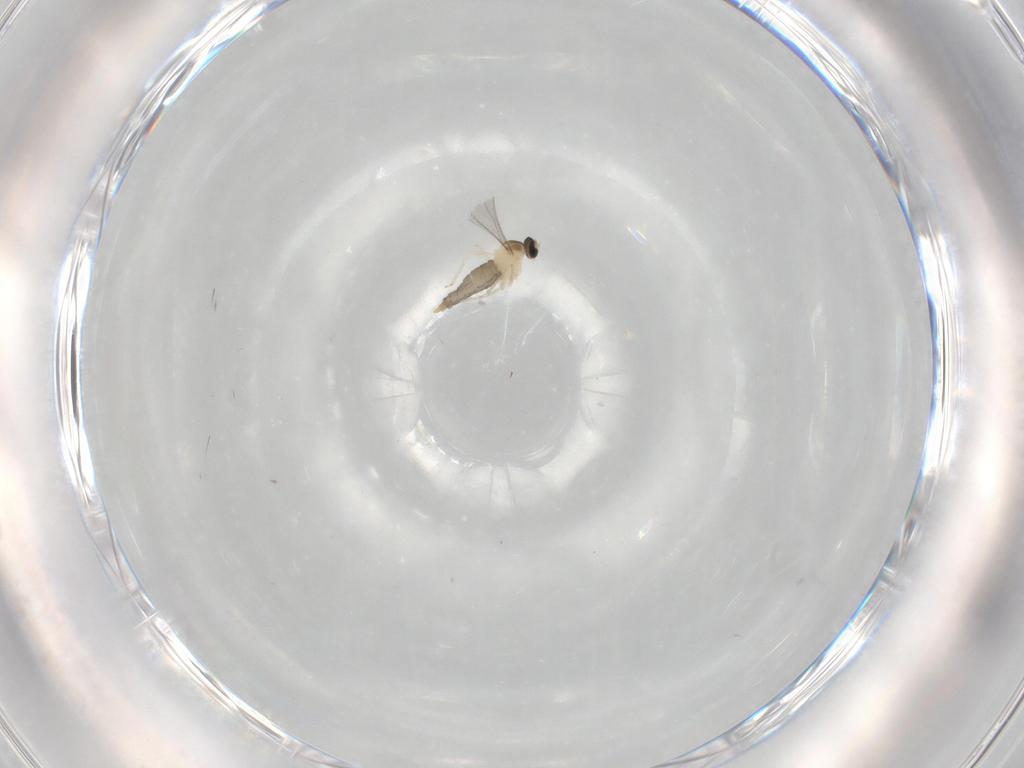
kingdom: Animalia
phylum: Arthropoda
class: Insecta
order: Diptera
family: Cecidomyiidae
